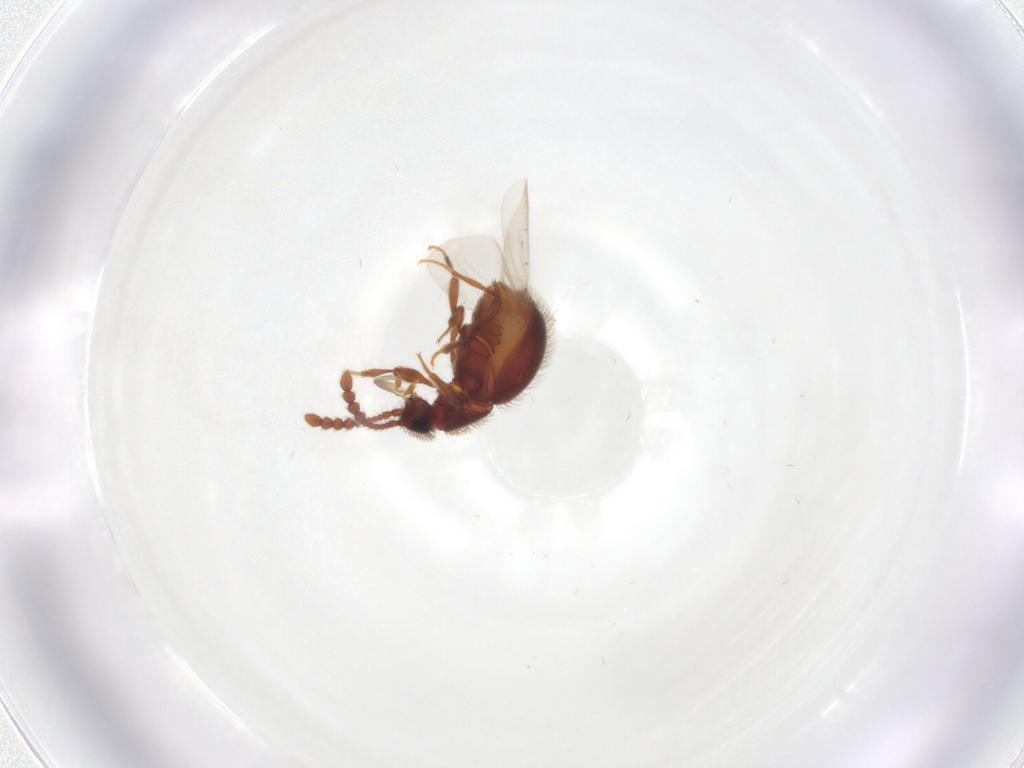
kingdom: Animalia
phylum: Arthropoda
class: Insecta
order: Coleoptera
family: Staphylinidae
